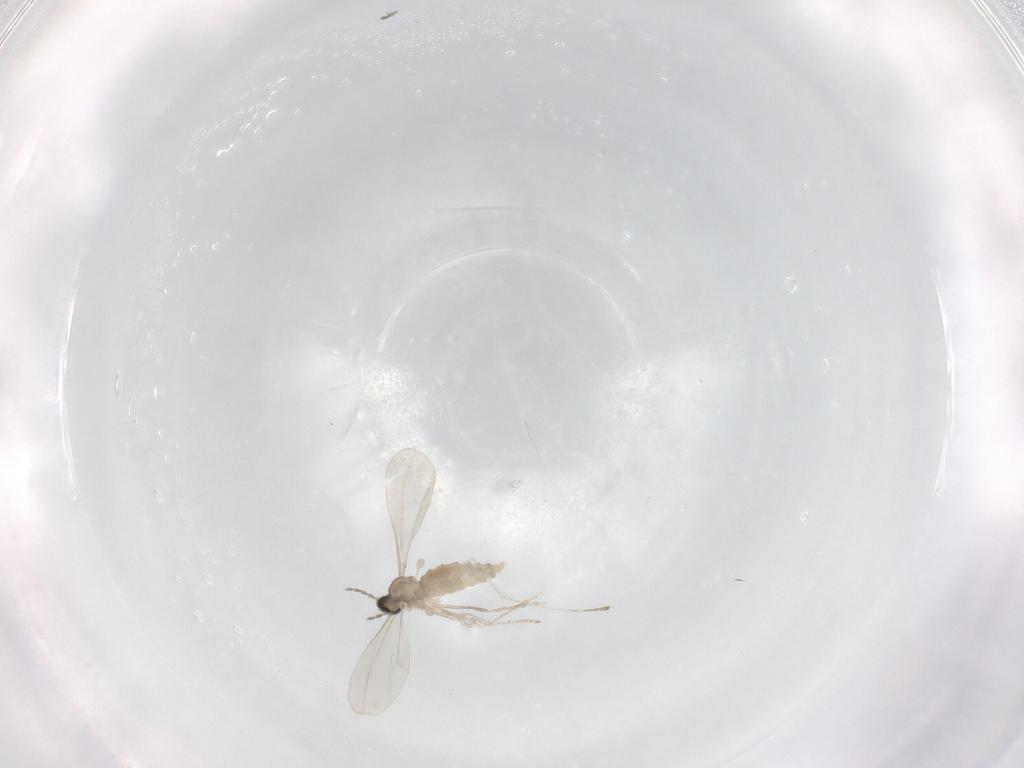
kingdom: Animalia
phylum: Arthropoda
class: Insecta
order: Diptera
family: Cecidomyiidae
